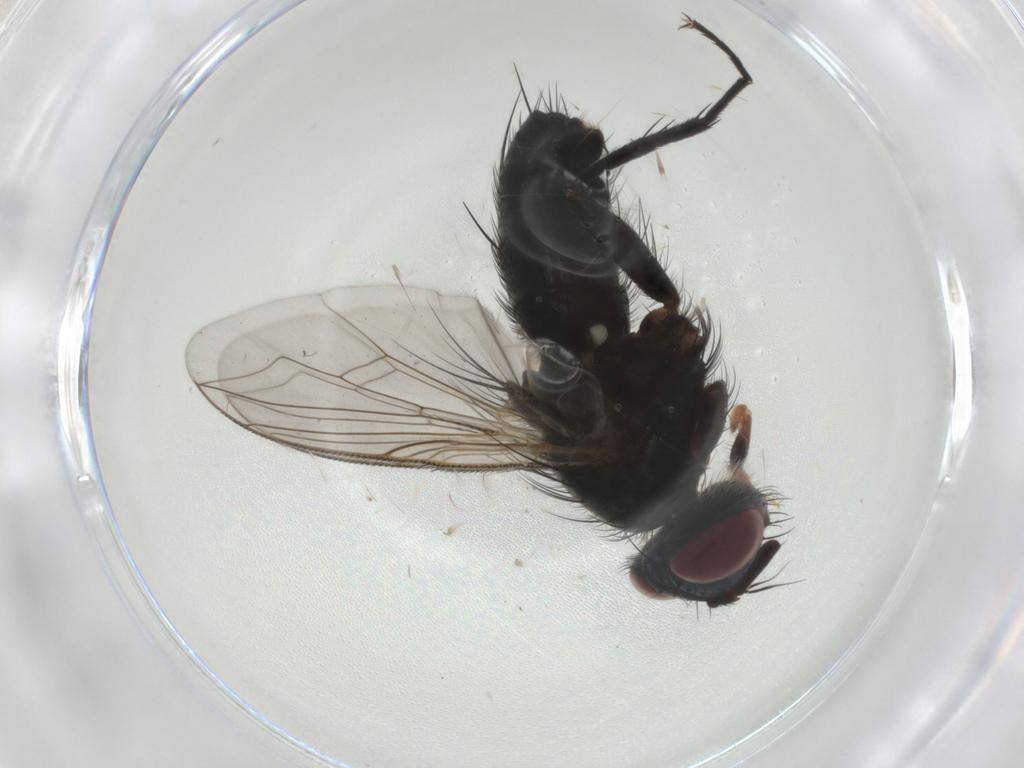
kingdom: Animalia
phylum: Arthropoda
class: Insecta
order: Diptera
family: Tachinidae
